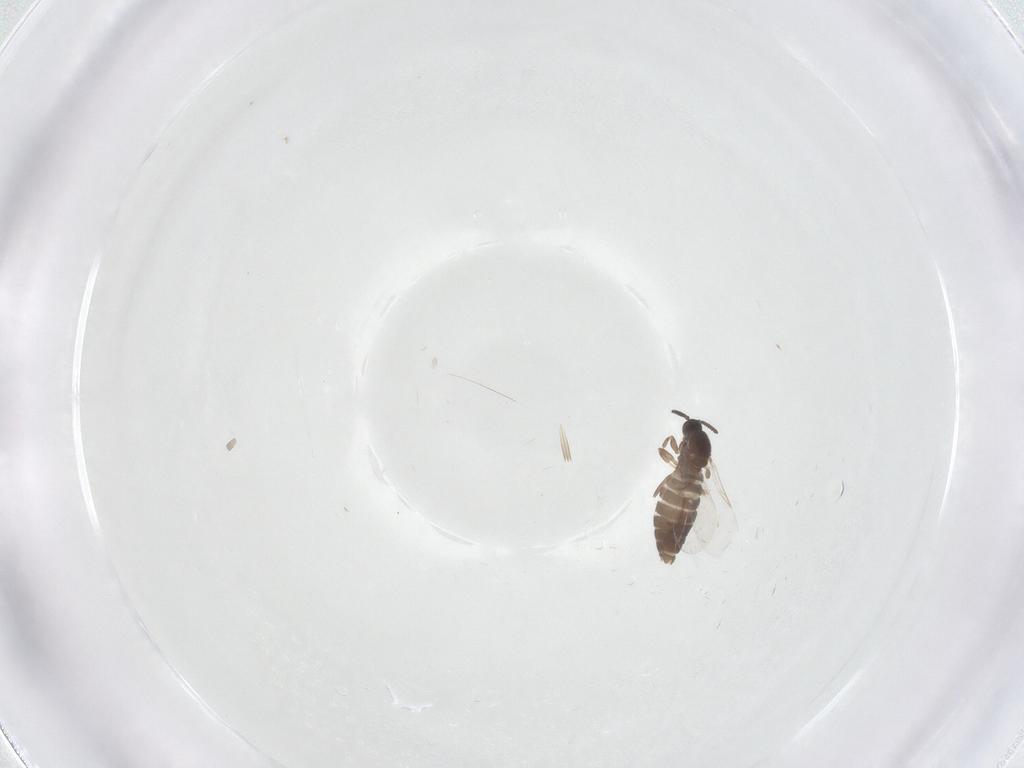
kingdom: Animalia
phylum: Arthropoda
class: Insecta
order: Diptera
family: Scatopsidae
